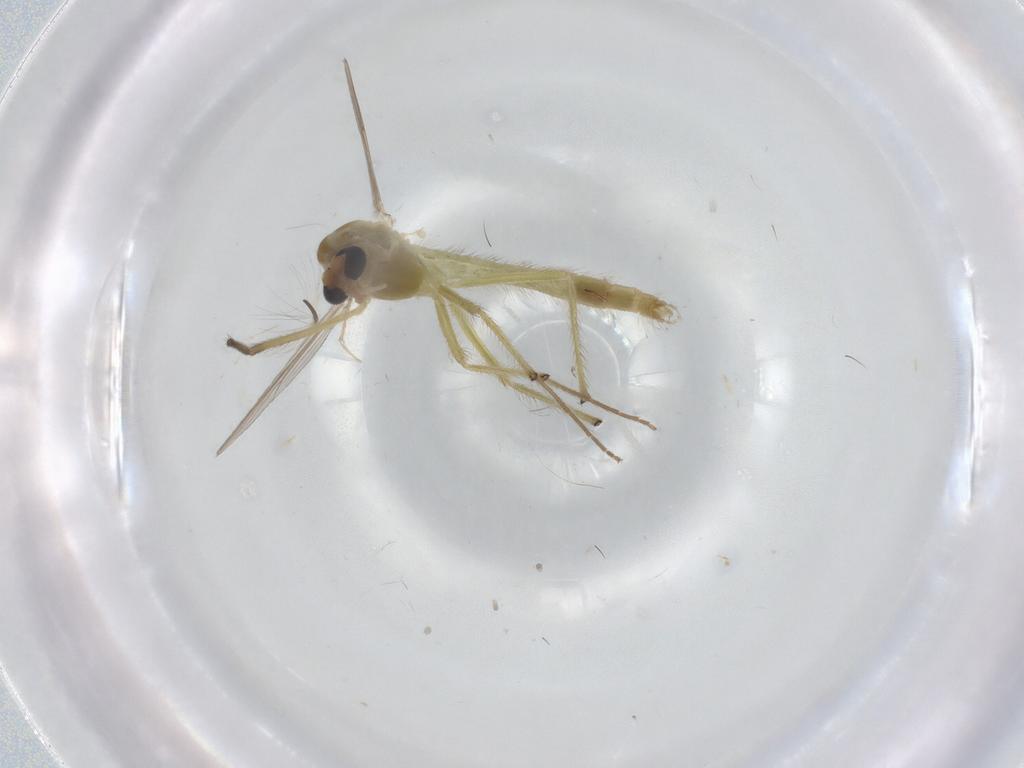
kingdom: Animalia
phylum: Arthropoda
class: Insecta
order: Diptera
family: Chironomidae
